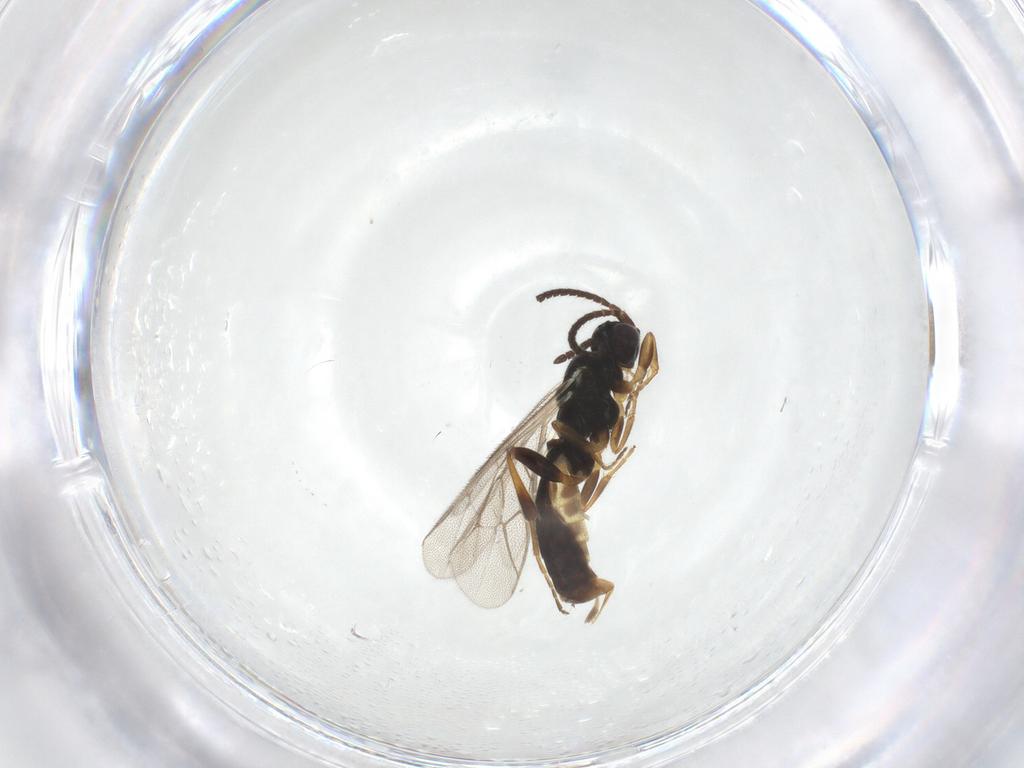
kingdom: Animalia
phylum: Arthropoda
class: Insecta
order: Hymenoptera
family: Ichneumonidae
